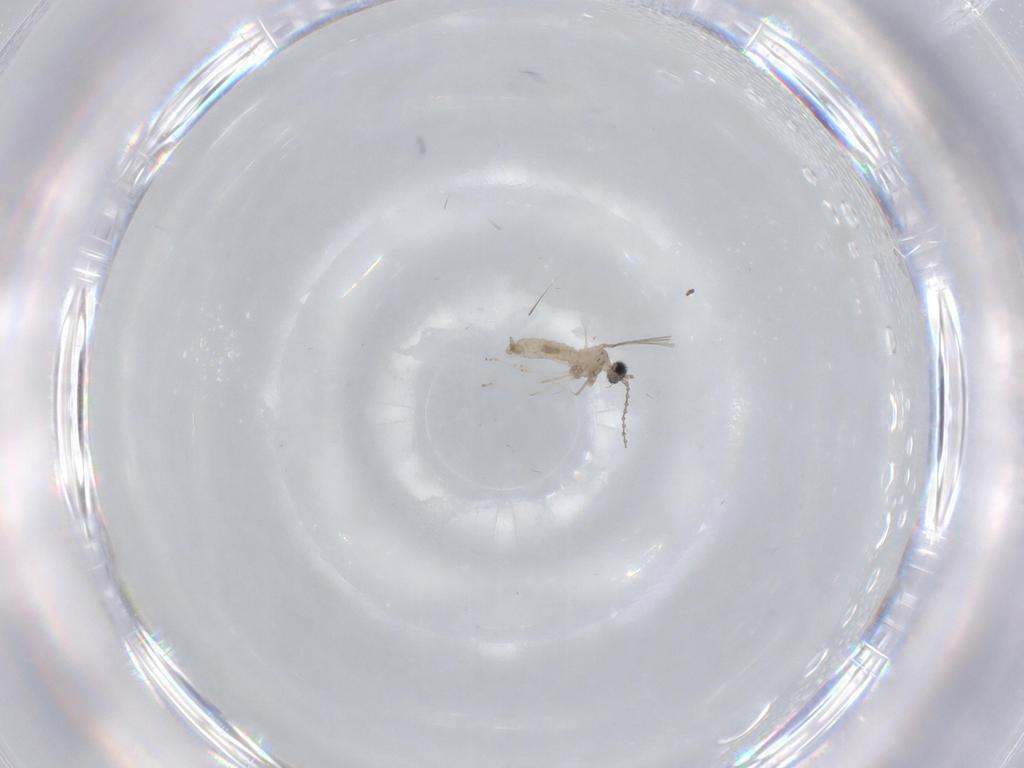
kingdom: Animalia
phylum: Arthropoda
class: Insecta
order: Diptera
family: Cecidomyiidae
